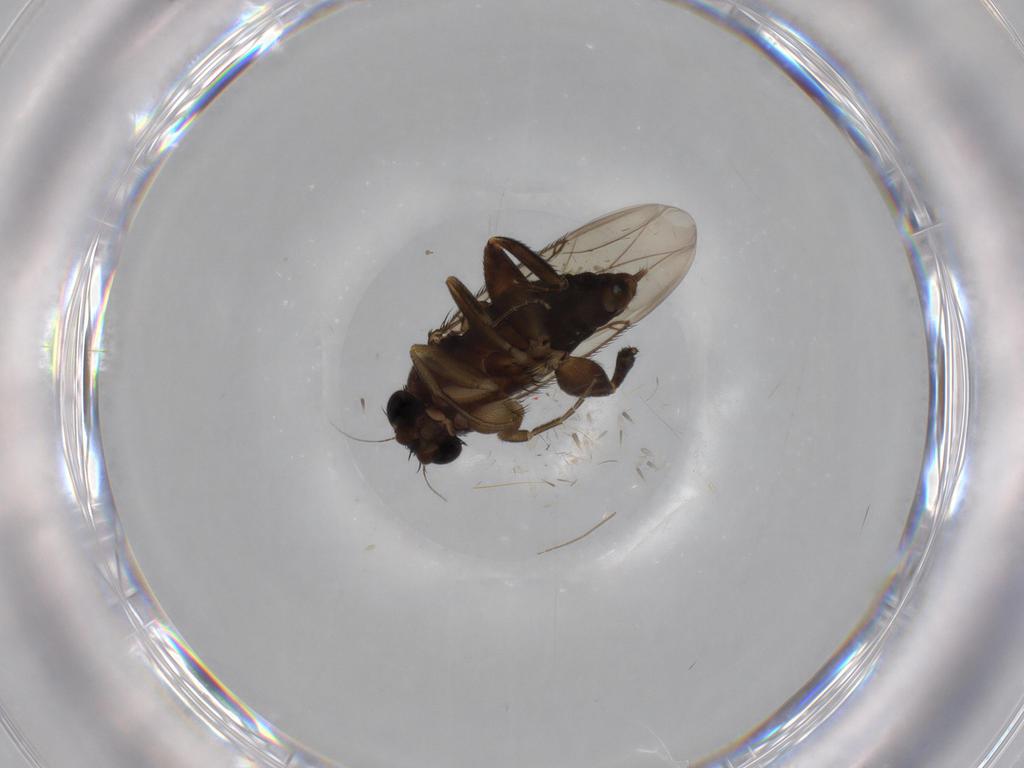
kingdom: Animalia
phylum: Arthropoda
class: Insecta
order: Diptera
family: Phoridae
